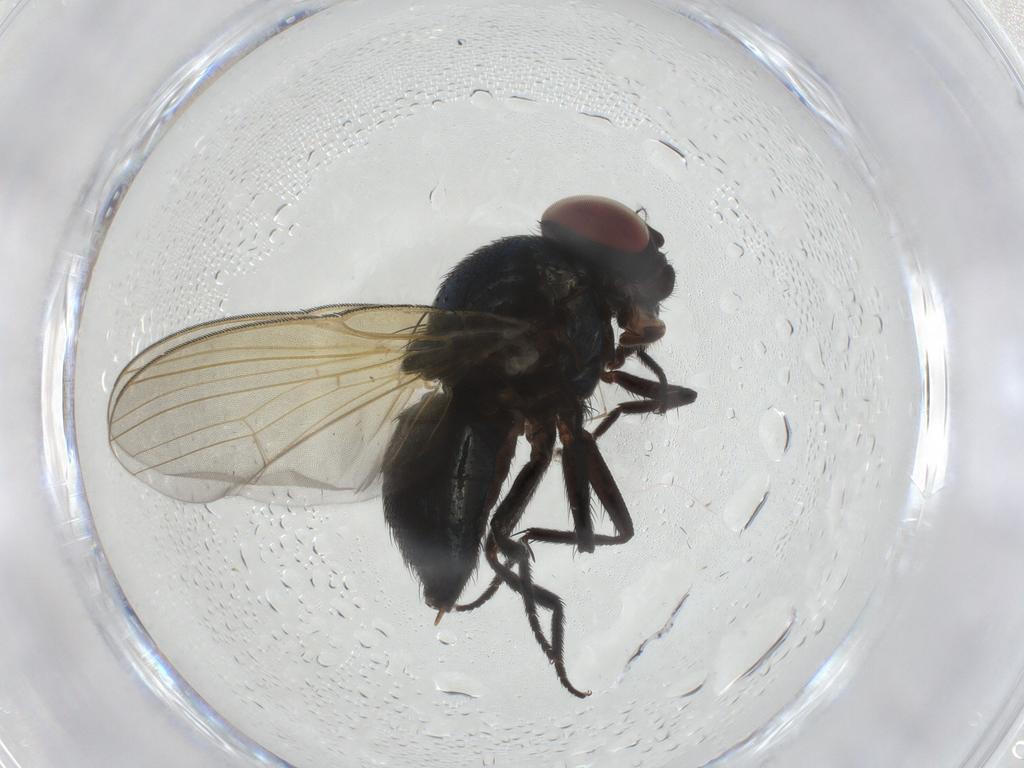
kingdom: Animalia
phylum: Arthropoda
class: Insecta
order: Diptera
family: Lonchaeidae
